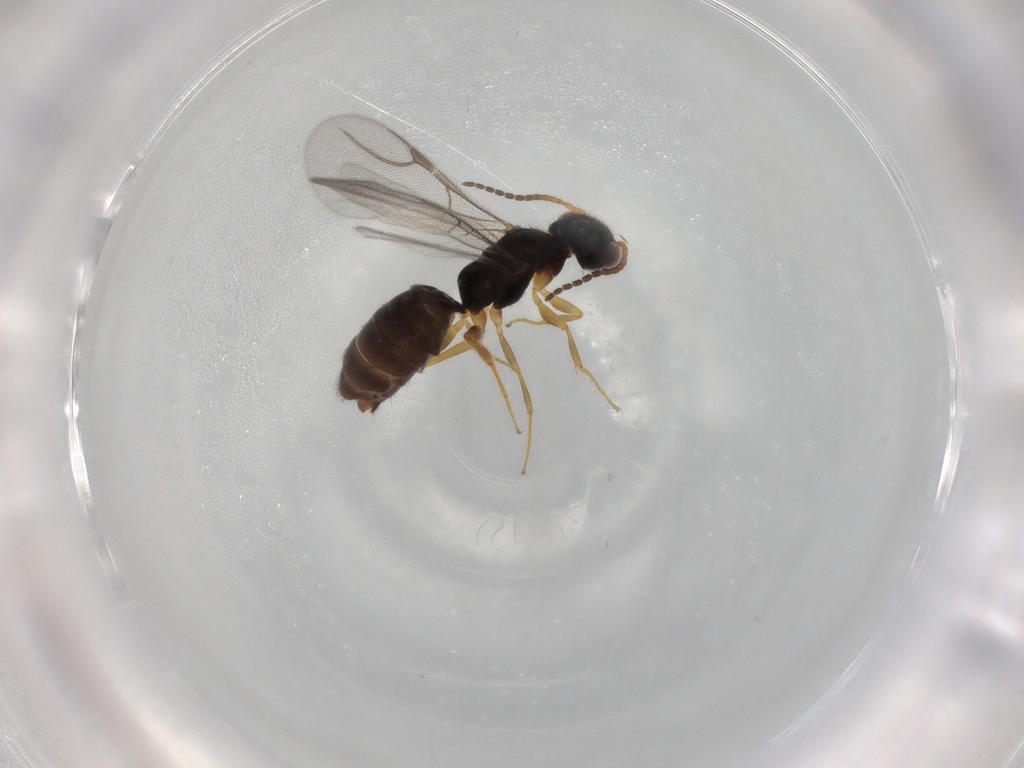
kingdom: Animalia
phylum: Arthropoda
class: Insecta
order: Hymenoptera
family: Bethylidae
